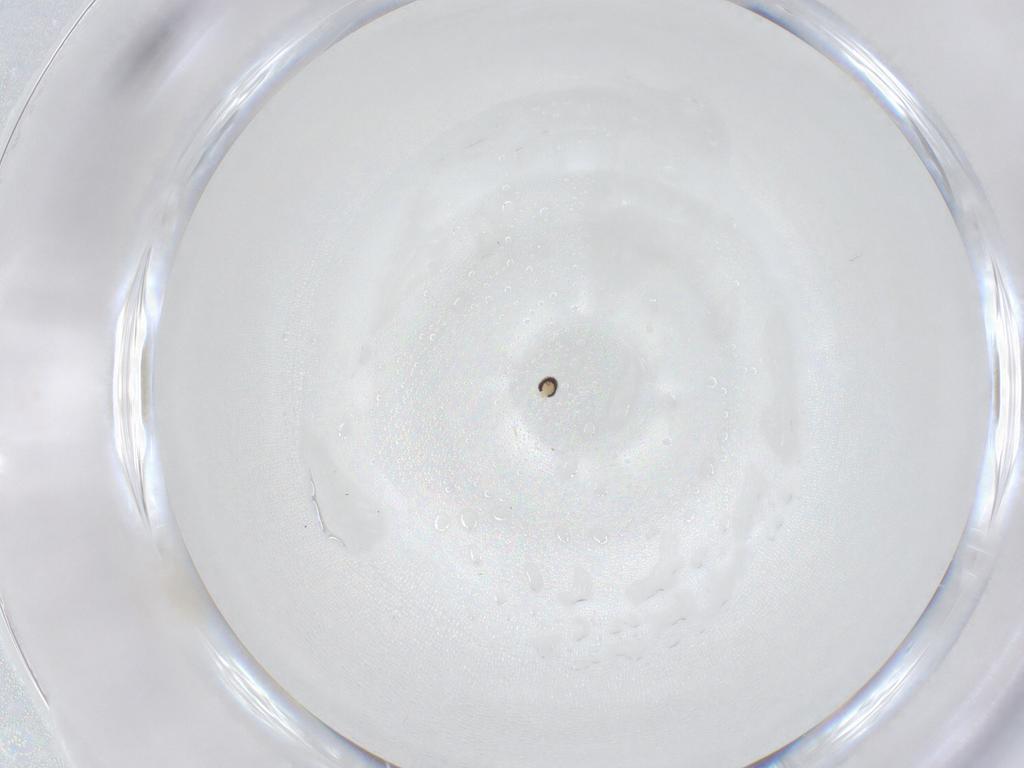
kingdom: Animalia
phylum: Arthropoda
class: Insecta
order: Diptera
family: Cecidomyiidae
